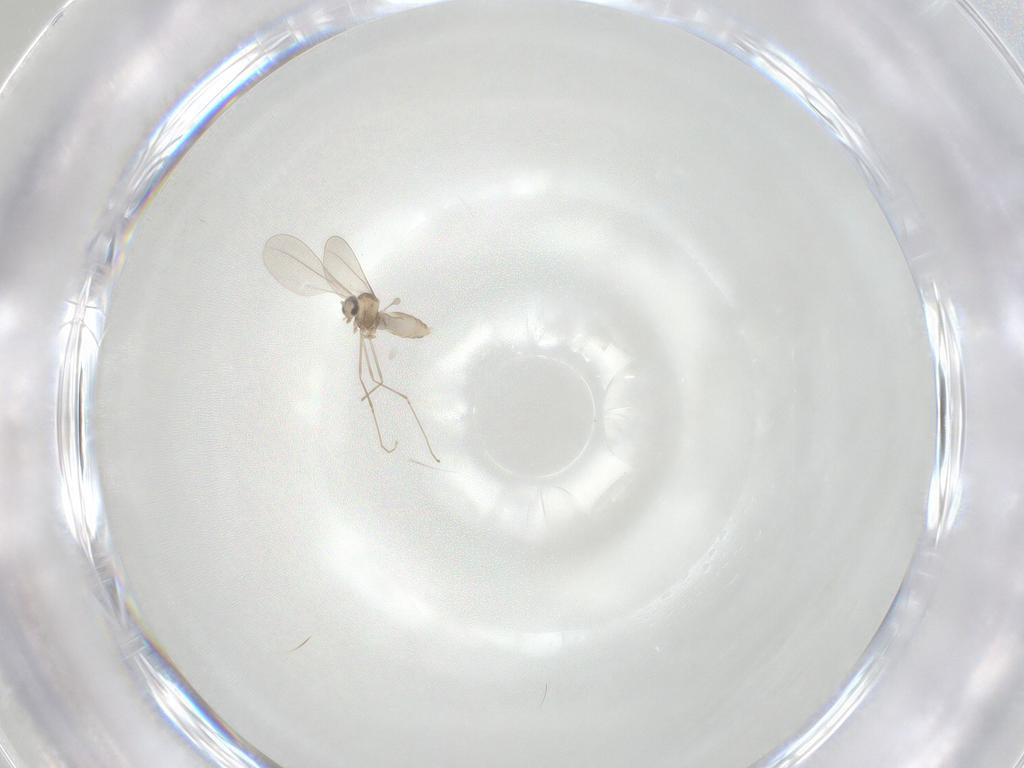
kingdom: Animalia
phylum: Arthropoda
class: Insecta
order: Diptera
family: Cecidomyiidae
